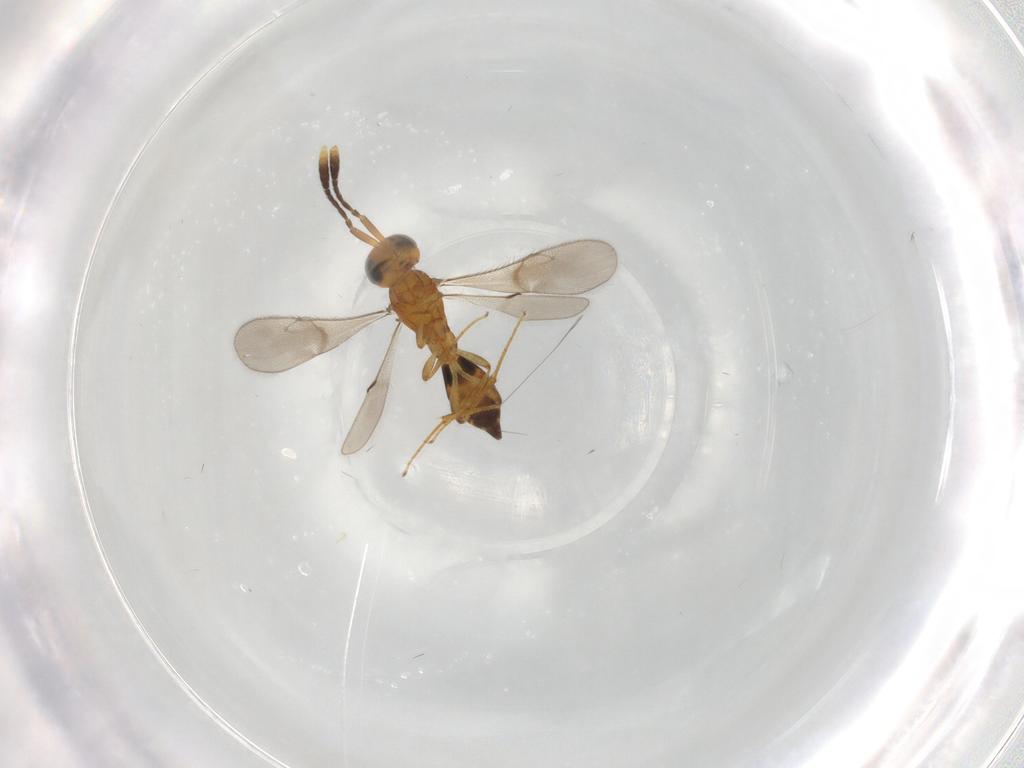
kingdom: Animalia
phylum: Arthropoda
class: Insecta
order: Hymenoptera
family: Scelionidae
